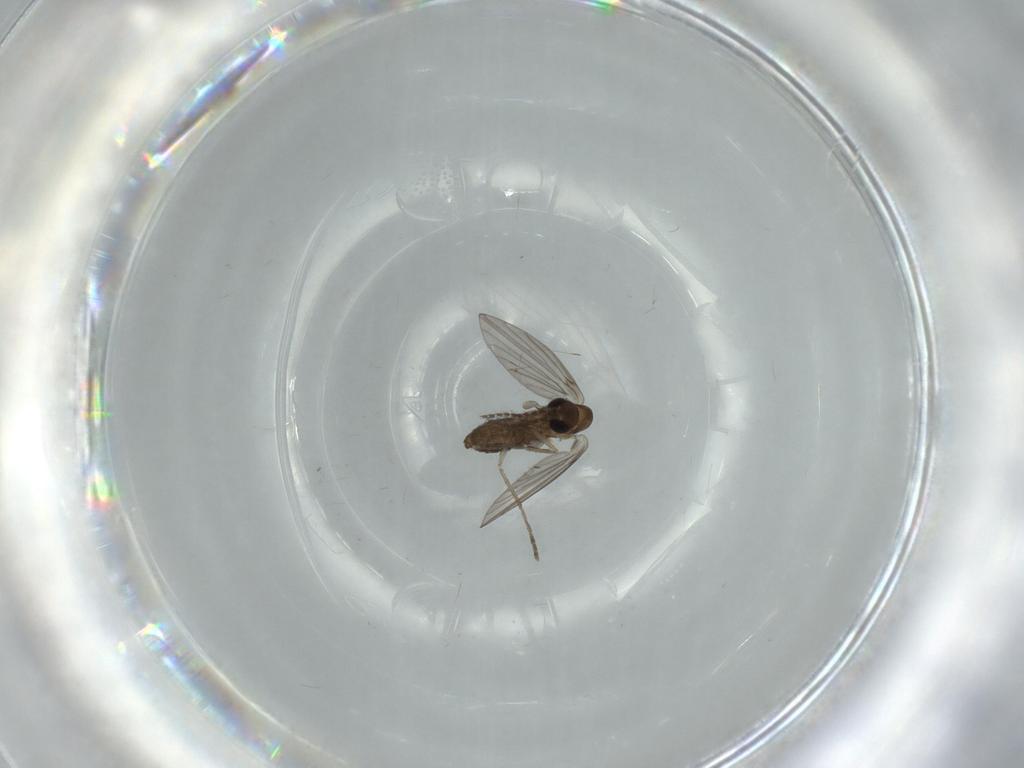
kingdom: Animalia
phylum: Arthropoda
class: Insecta
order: Diptera
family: Psychodidae
